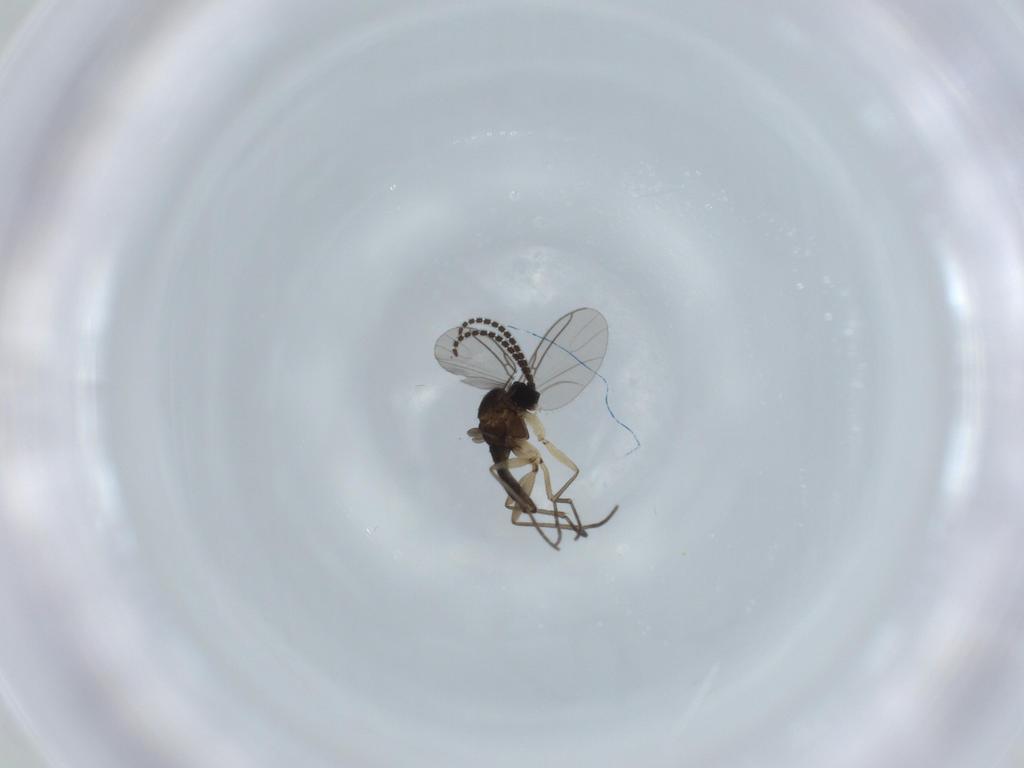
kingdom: Animalia
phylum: Arthropoda
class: Insecta
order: Diptera
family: Sciaridae
